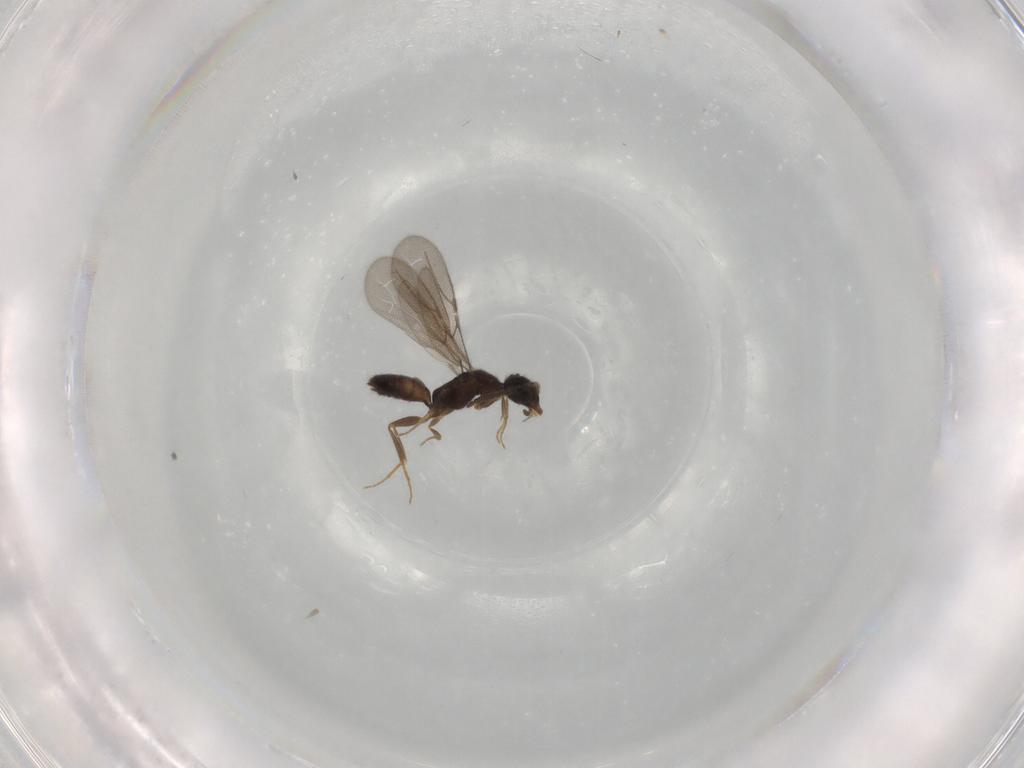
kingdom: Animalia
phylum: Arthropoda
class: Insecta
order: Hymenoptera
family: Bethylidae
